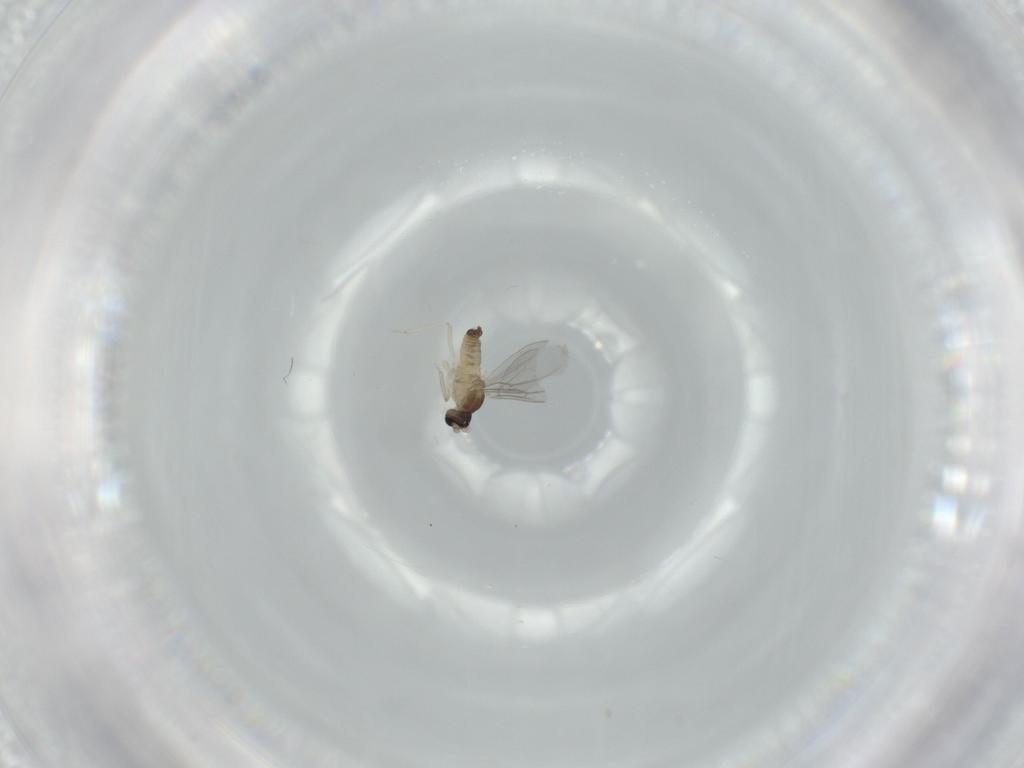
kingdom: Animalia
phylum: Arthropoda
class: Insecta
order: Diptera
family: Cecidomyiidae
